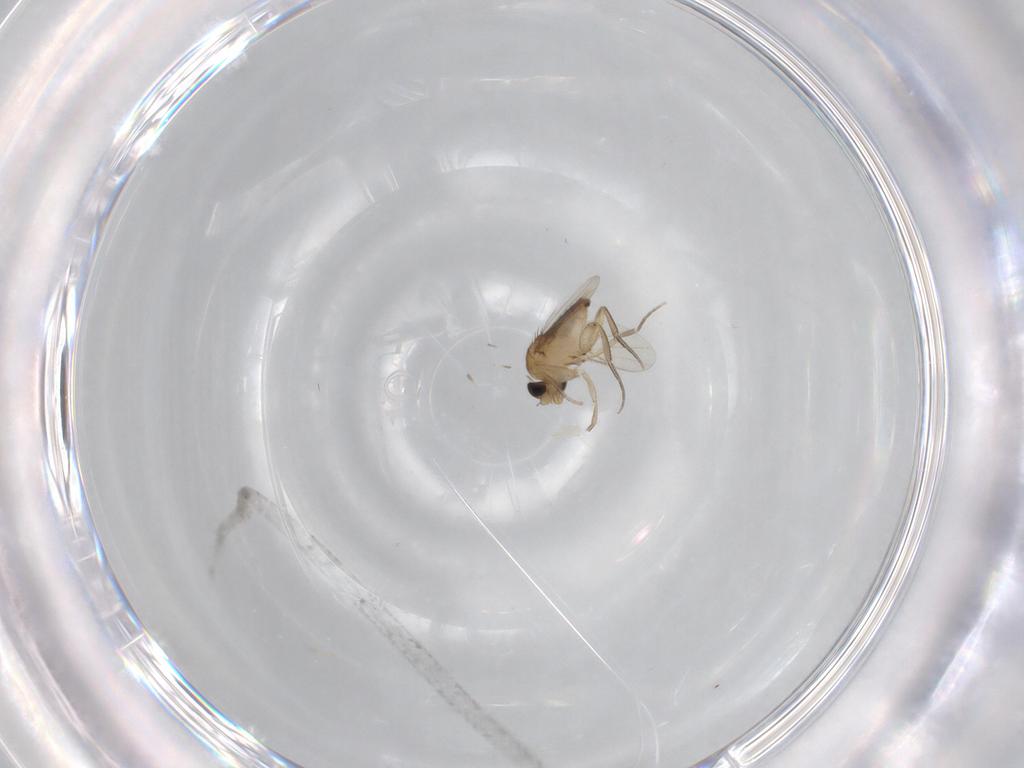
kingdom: Animalia
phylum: Arthropoda
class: Insecta
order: Diptera
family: Phoridae
